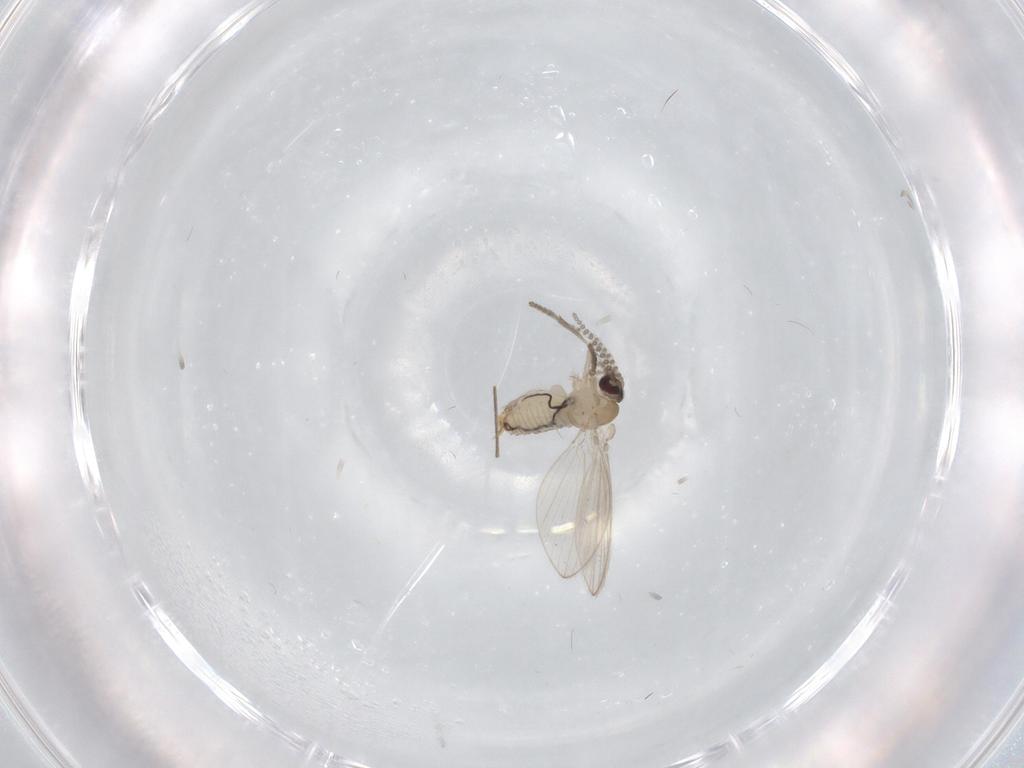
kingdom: Animalia
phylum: Arthropoda
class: Insecta
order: Diptera
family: Psychodidae
